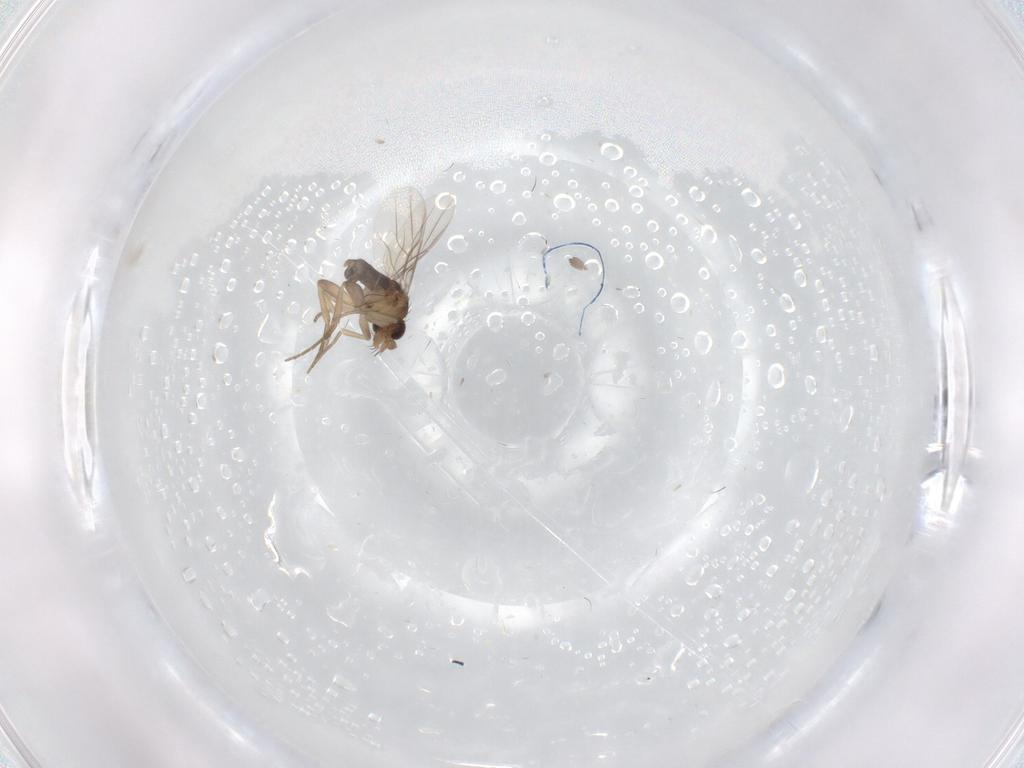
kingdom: Animalia
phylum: Arthropoda
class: Insecta
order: Diptera
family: Phoridae
